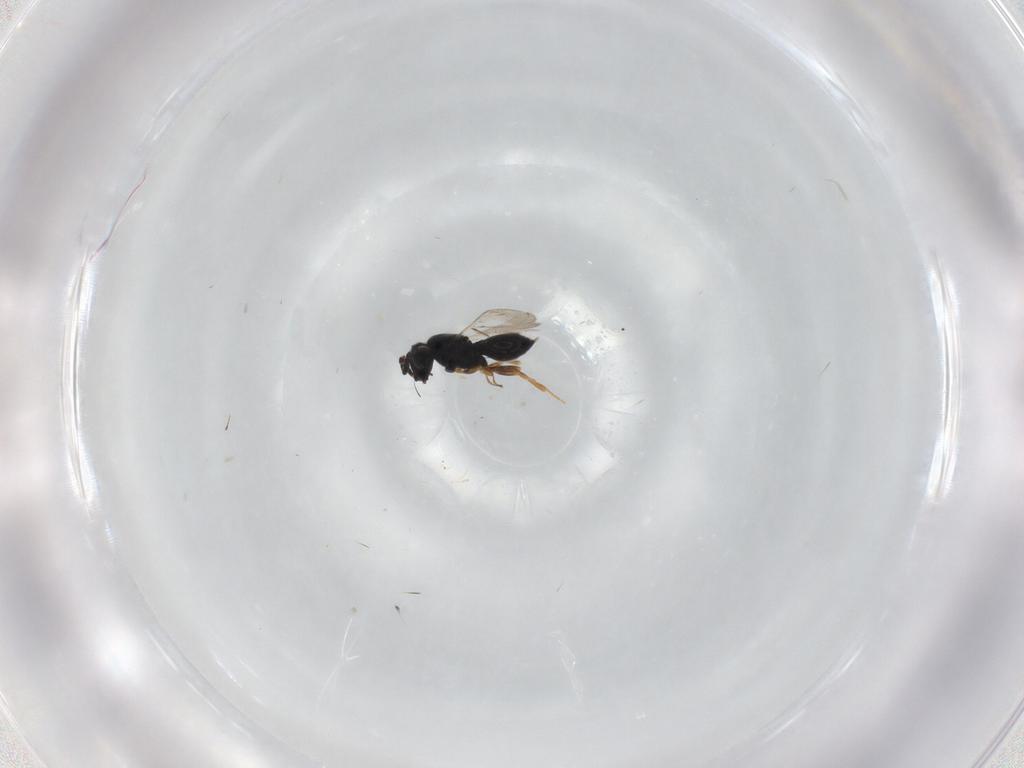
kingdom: Animalia
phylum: Arthropoda
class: Insecta
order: Hymenoptera
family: Scelionidae
